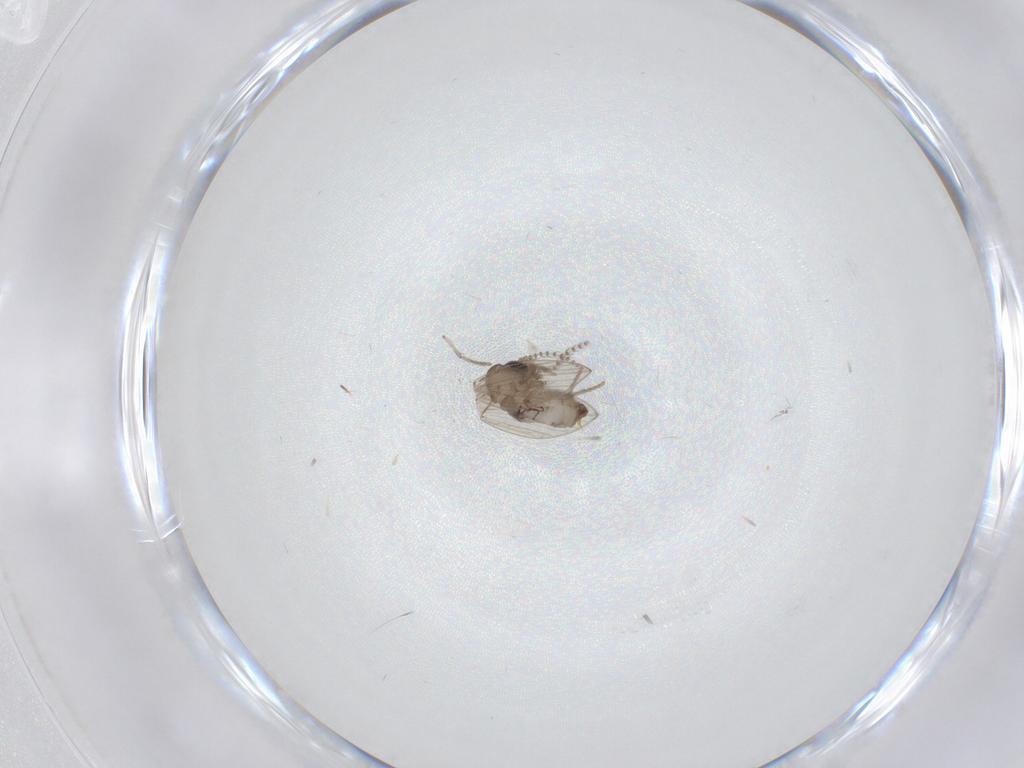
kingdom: Animalia
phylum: Arthropoda
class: Insecta
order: Diptera
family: Psychodidae
